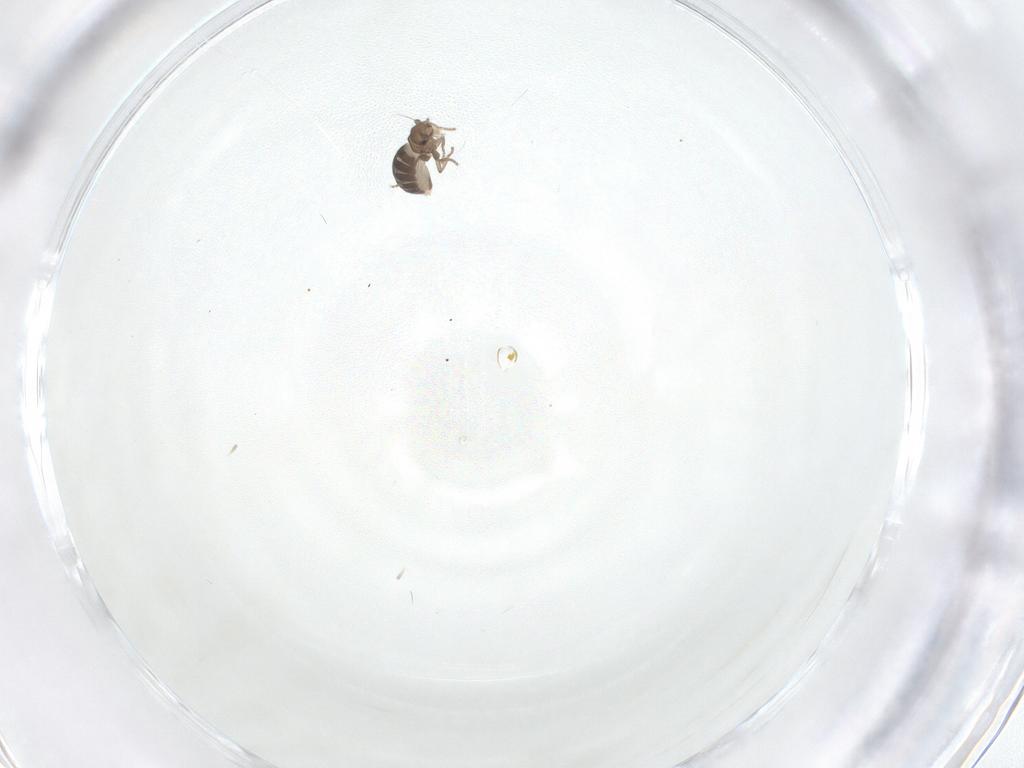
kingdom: Animalia
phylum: Arthropoda
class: Insecta
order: Diptera
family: Phoridae
